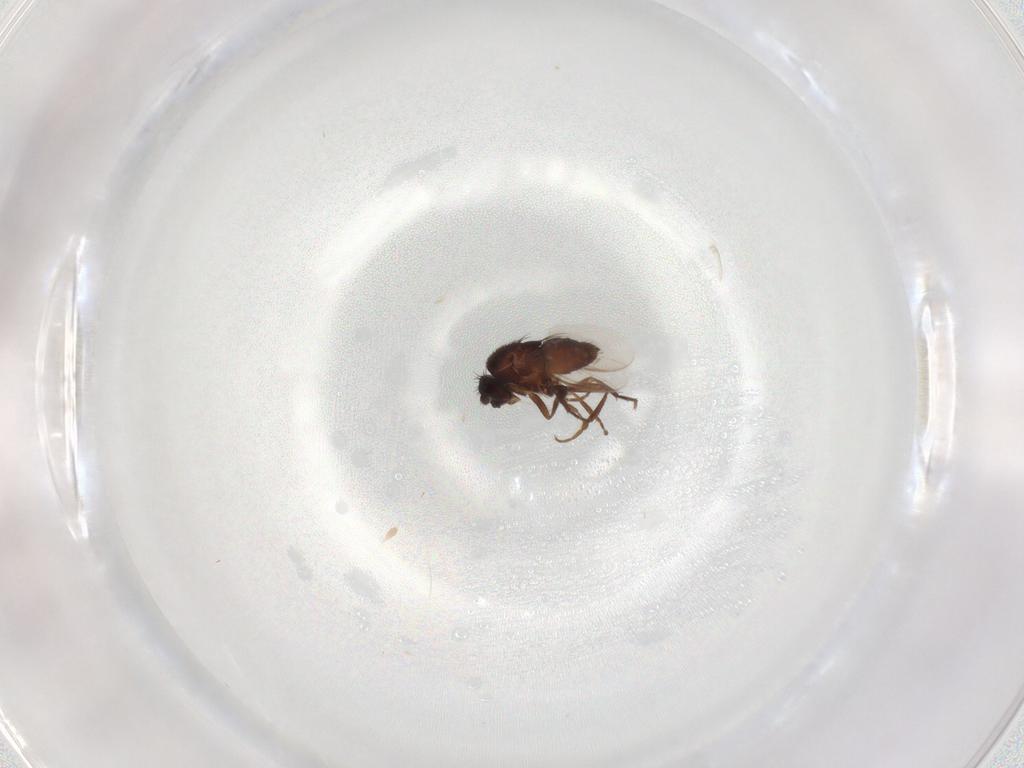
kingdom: Animalia
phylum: Arthropoda
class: Insecta
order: Diptera
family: Sphaeroceridae
